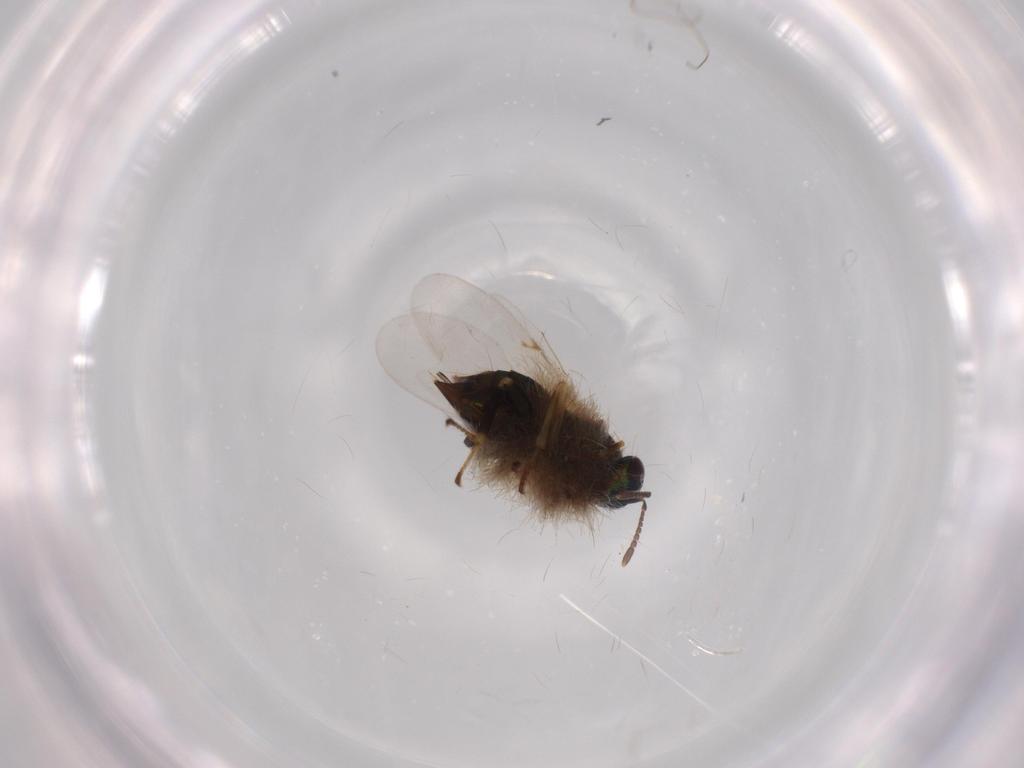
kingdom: Animalia
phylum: Arthropoda
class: Insecta
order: Hymenoptera
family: Encyrtidae
